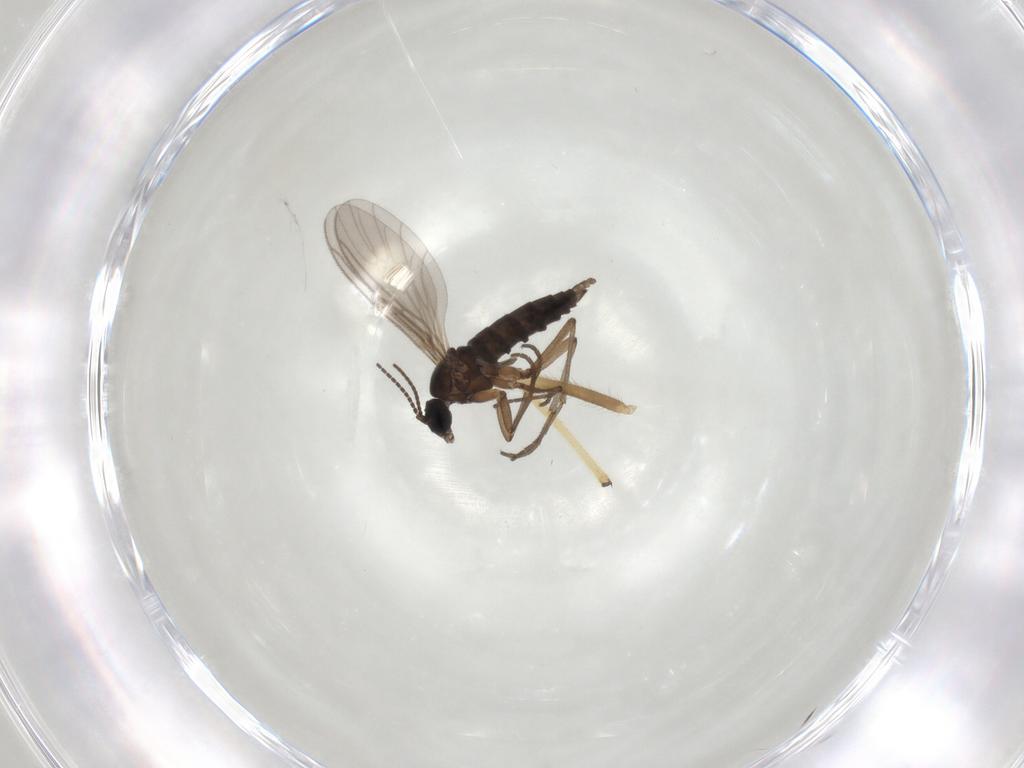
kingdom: Animalia
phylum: Arthropoda
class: Insecta
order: Diptera
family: Sciaridae
